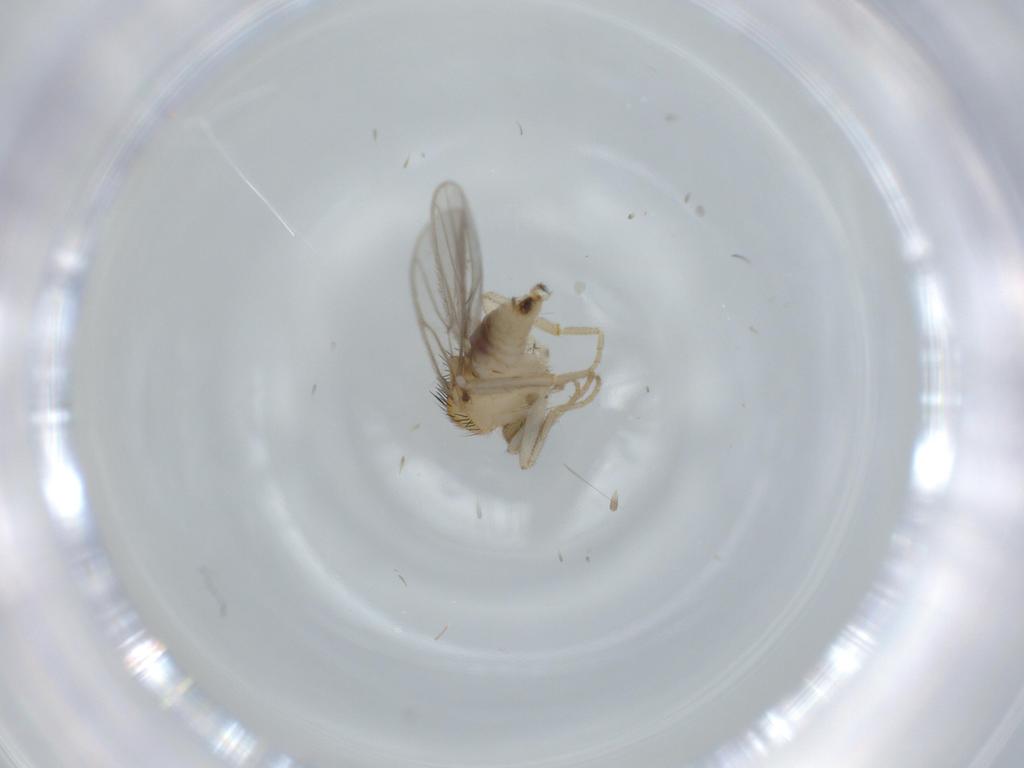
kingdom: Animalia
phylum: Arthropoda
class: Insecta
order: Diptera
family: Hybotidae
